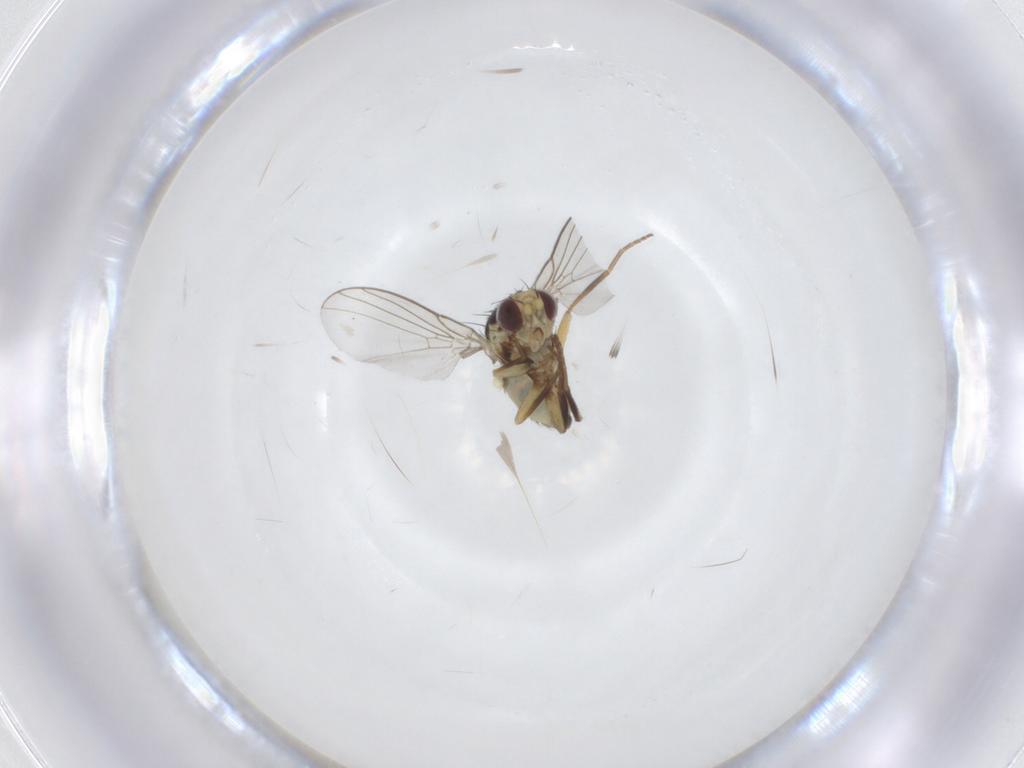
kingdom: Animalia
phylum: Arthropoda
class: Insecta
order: Diptera
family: Agromyzidae
